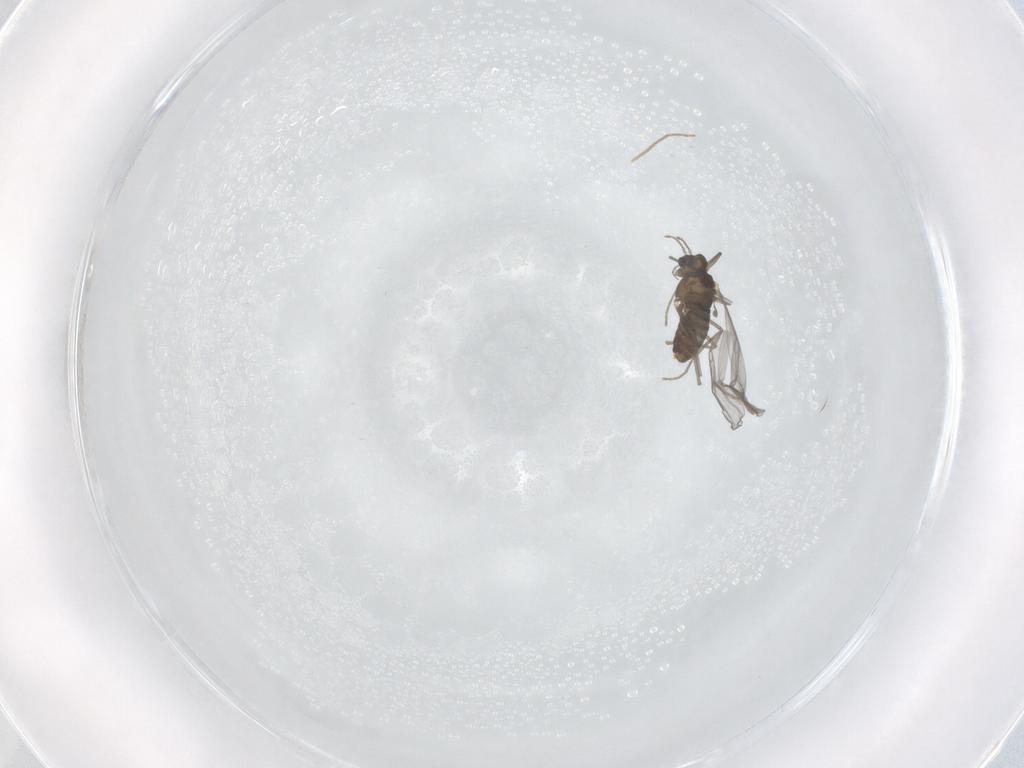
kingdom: Animalia
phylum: Arthropoda
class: Insecta
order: Diptera
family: Chironomidae
